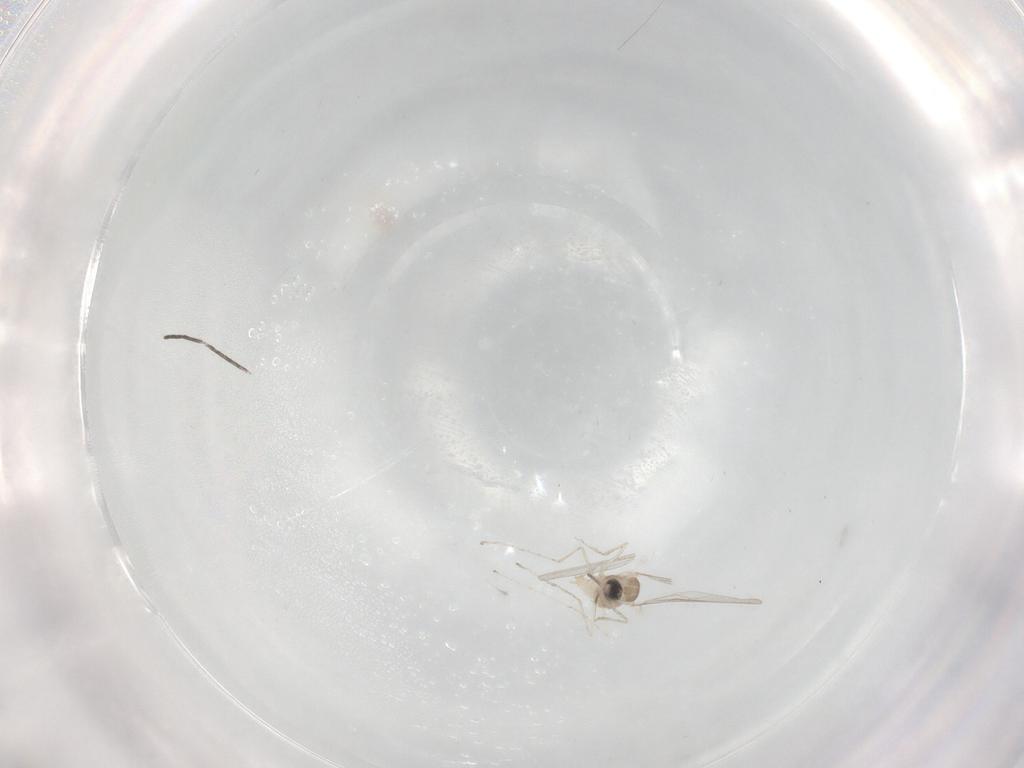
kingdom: Animalia
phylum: Arthropoda
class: Insecta
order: Diptera
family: Cecidomyiidae
